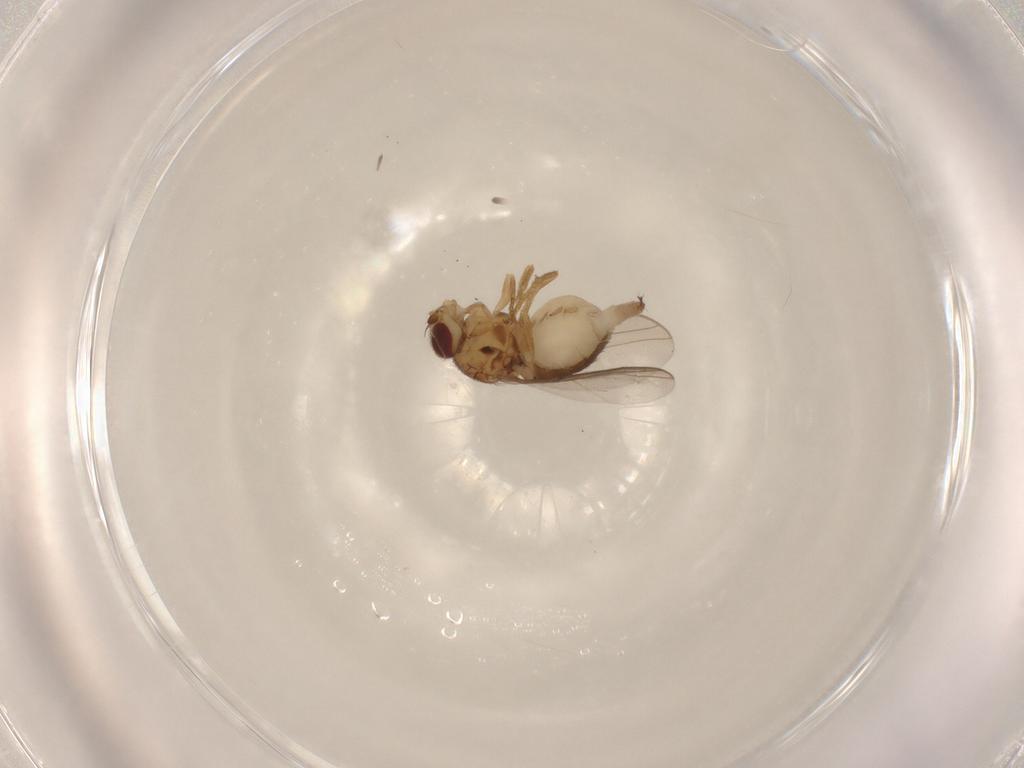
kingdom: Animalia
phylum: Arthropoda
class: Insecta
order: Diptera
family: Chloropidae
